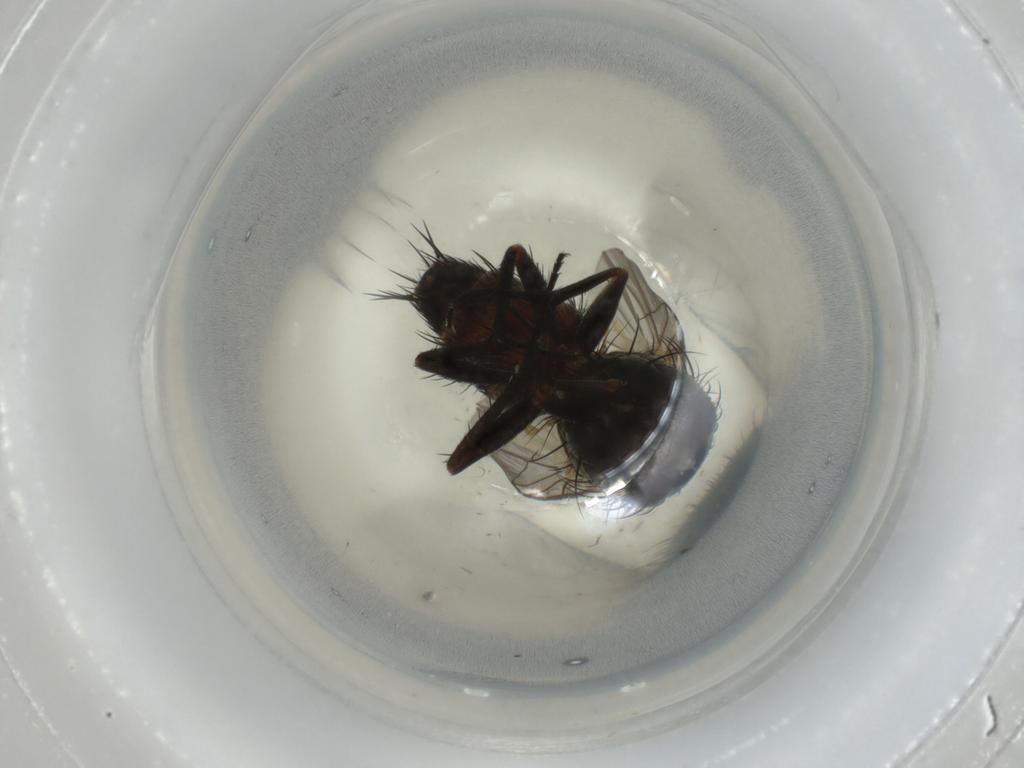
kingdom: Animalia
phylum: Arthropoda
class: Insecta
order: Diptera
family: Sarcophagidae
